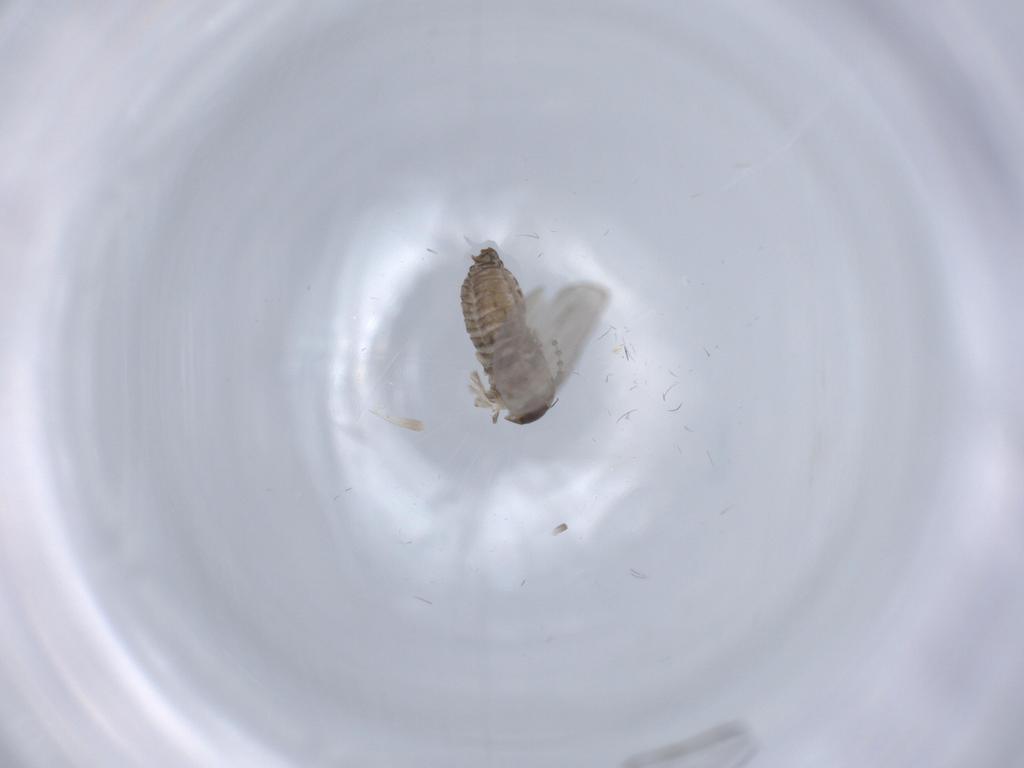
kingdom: Animalia
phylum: Arthropoda
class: Insecta
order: Diptera
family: Psychodidae
